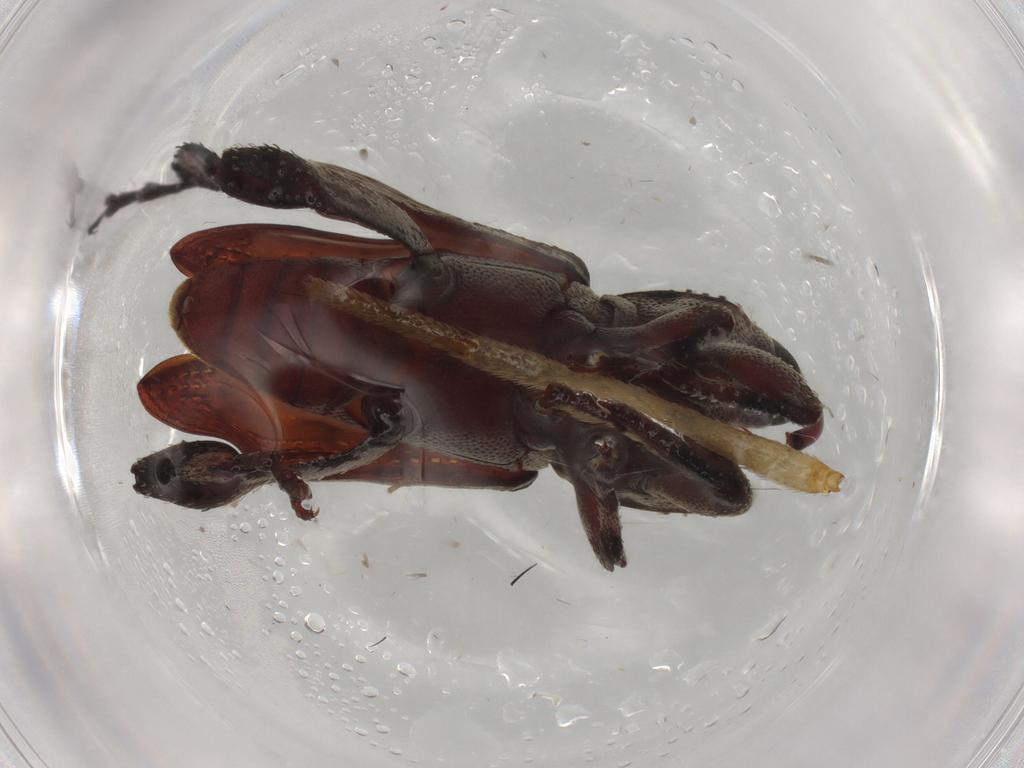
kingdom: Animalia
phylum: Arthropoda
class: Insecta
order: Coleoptera
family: Curculionidae
